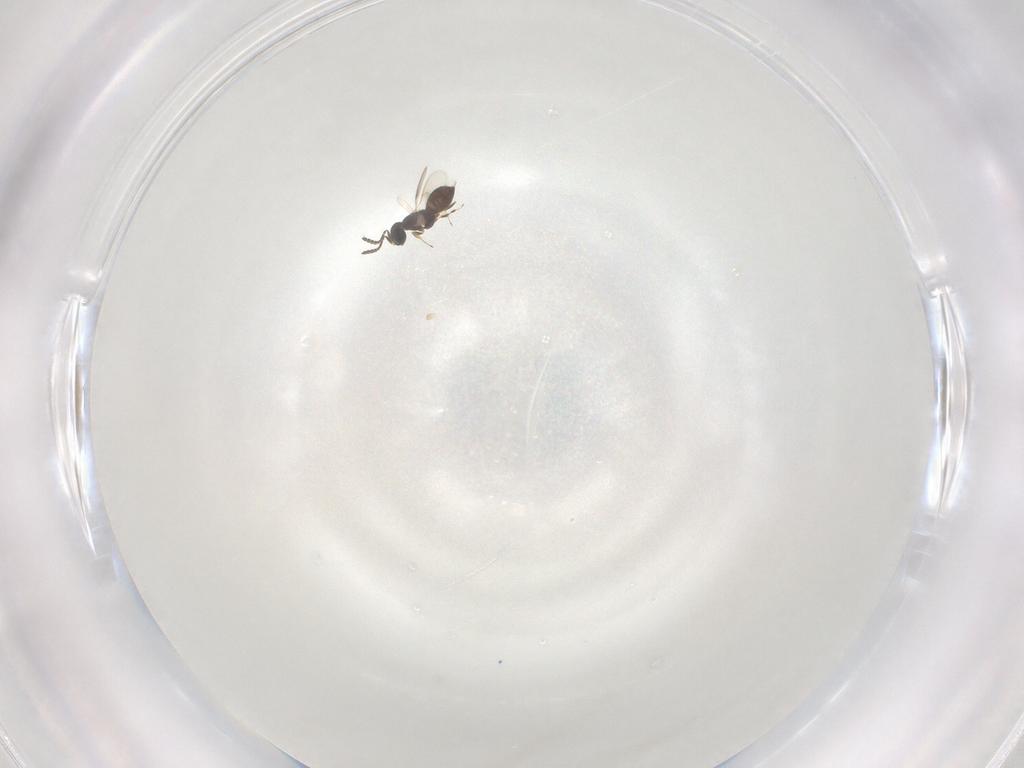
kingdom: Animalia
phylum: Arthropoda
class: Insecta
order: Hymenoptera
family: Scelionidae
